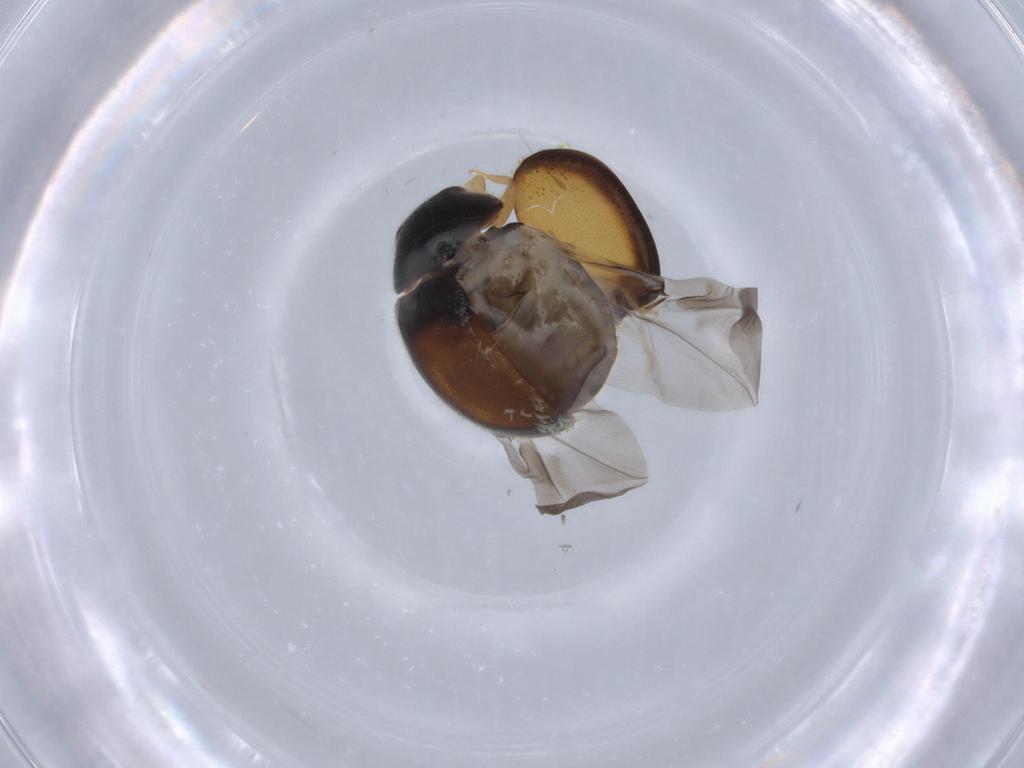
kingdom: Animalia
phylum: Arthropoda
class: Insecta
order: Coleoptera
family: Coccinellidae
